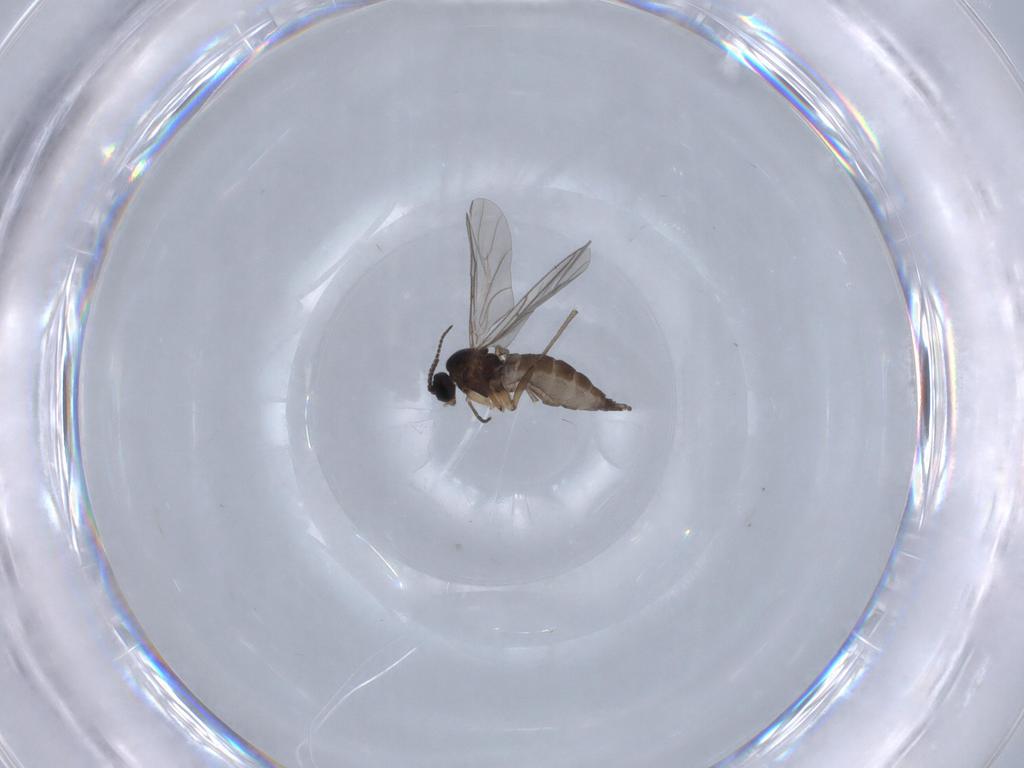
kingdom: Animalia
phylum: Arthropoda
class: Insecta
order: Diptera
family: Sciaridae
